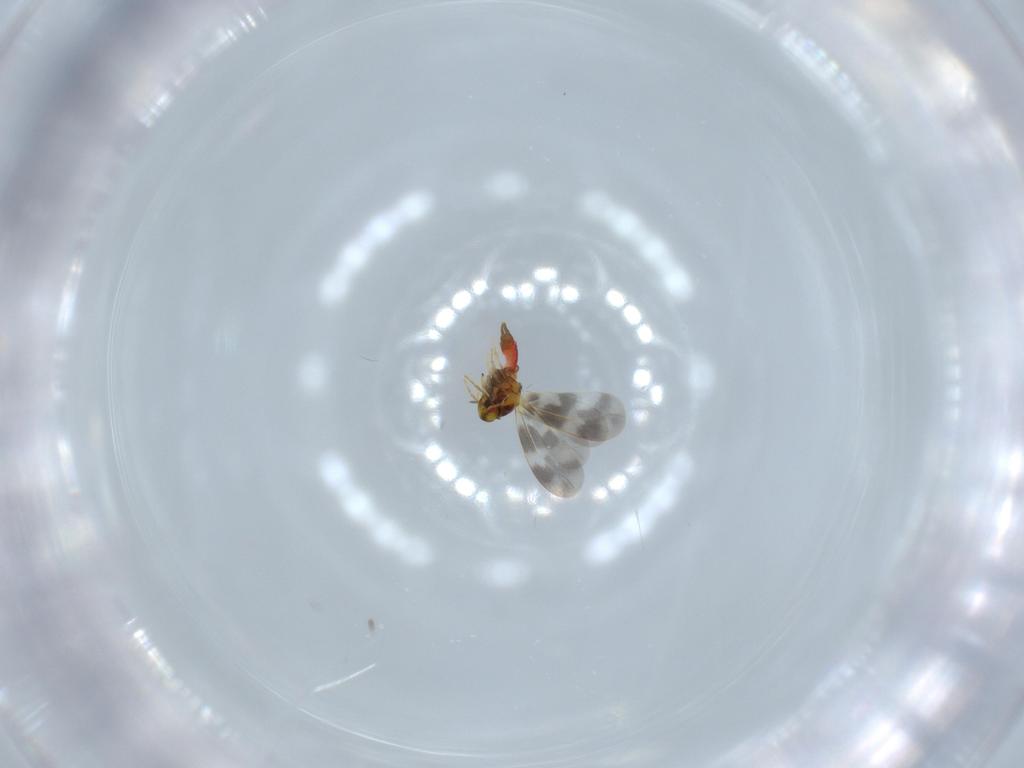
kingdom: Animalia
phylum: Arthropoda
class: Insecta
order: Hemiptera
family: Aleyrodidae
